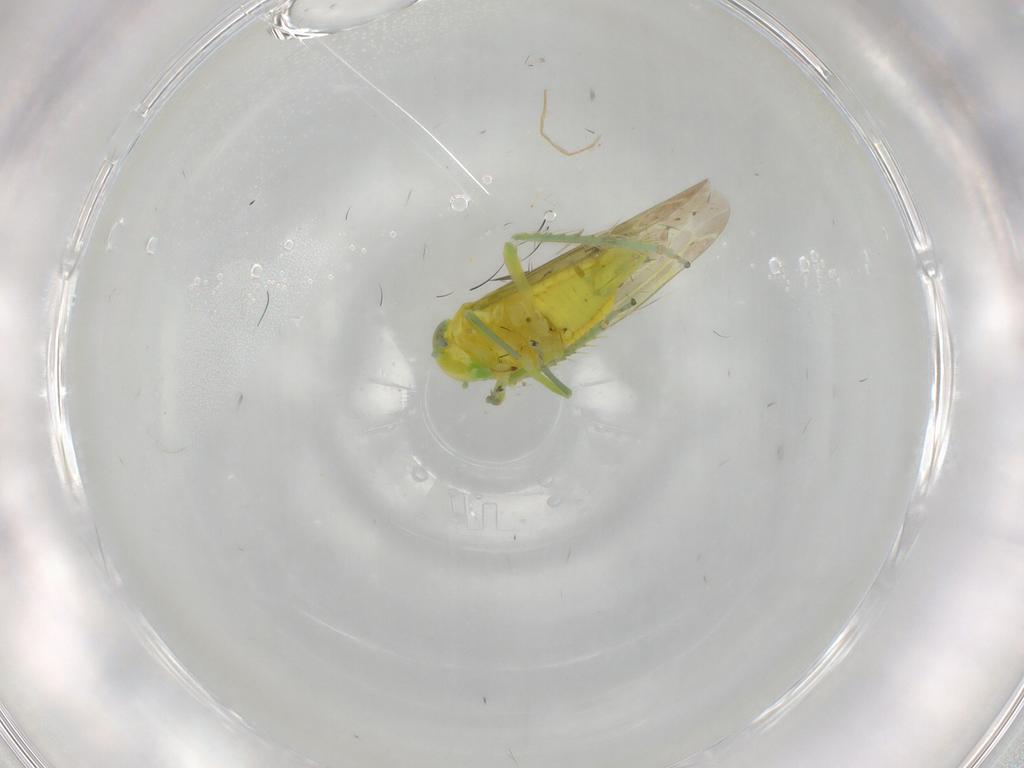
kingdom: Animalia
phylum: Arthropoda
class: Insecta
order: Hemiptera
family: Cicadellidae
